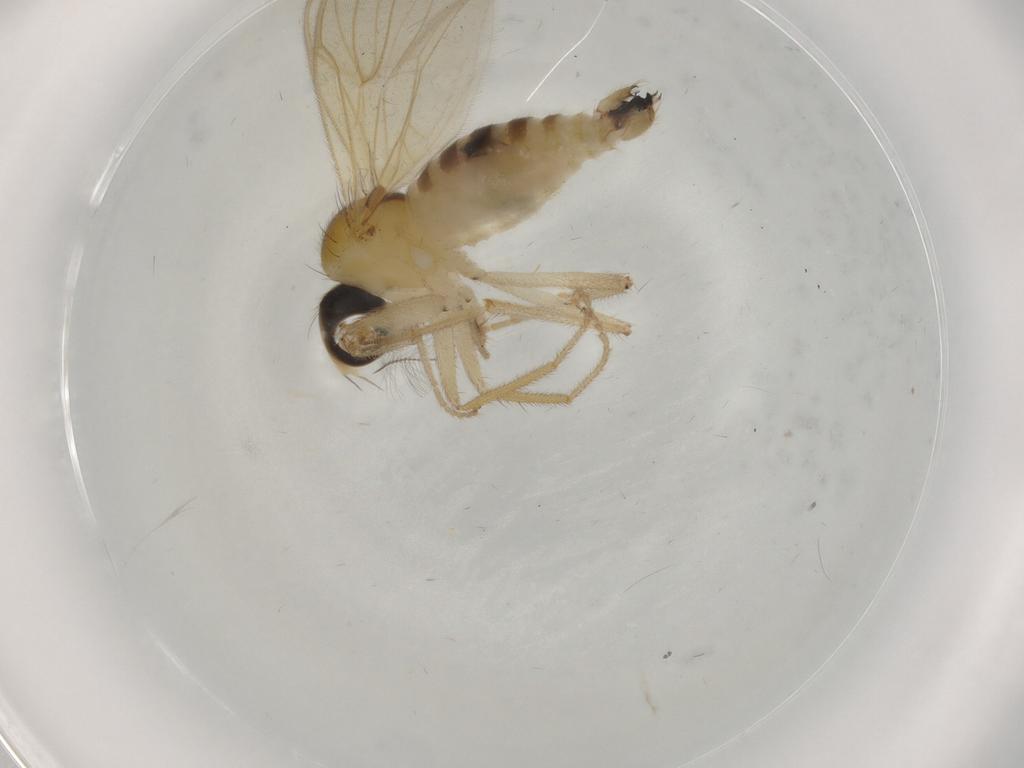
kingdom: Animalia
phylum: Arthropoda
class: Insecta
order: Diptera
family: Hybotidae
